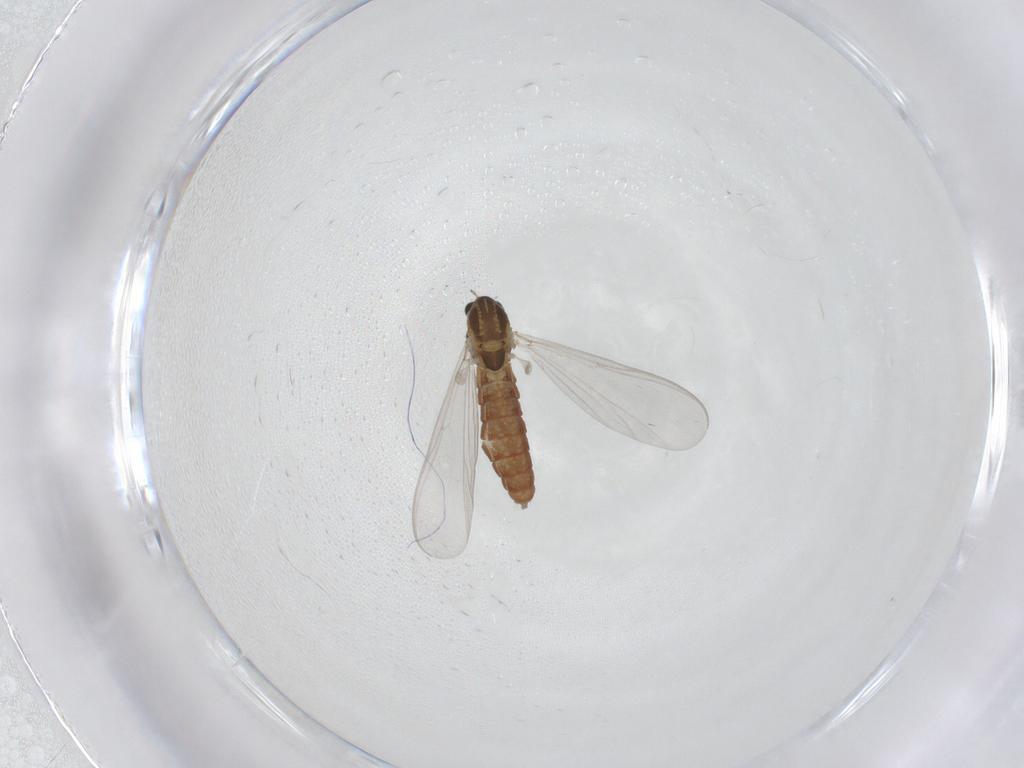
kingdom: Animalia
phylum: Arthropoda
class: Insecta
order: Diptera
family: Chironomidae
